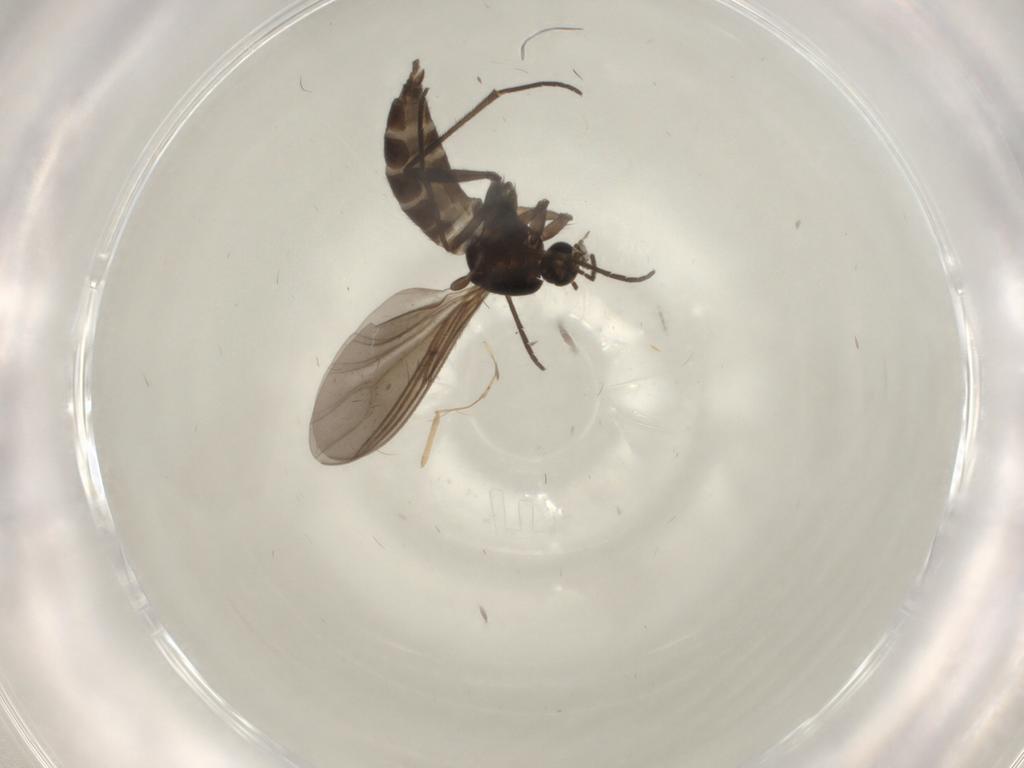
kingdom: Animalia
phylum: Arthropoda
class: Insecta
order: Diptera
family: Sciaridae
